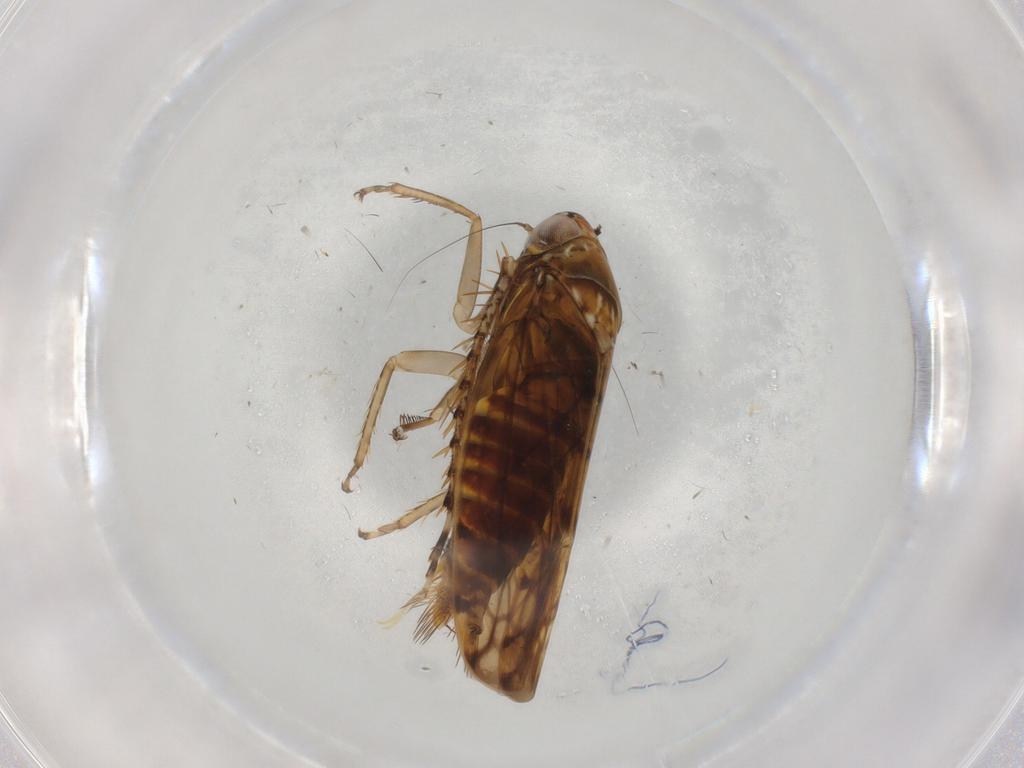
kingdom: Animalia
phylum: Arthropoda
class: Insecta
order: Hemiptera
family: Cicadellidae
